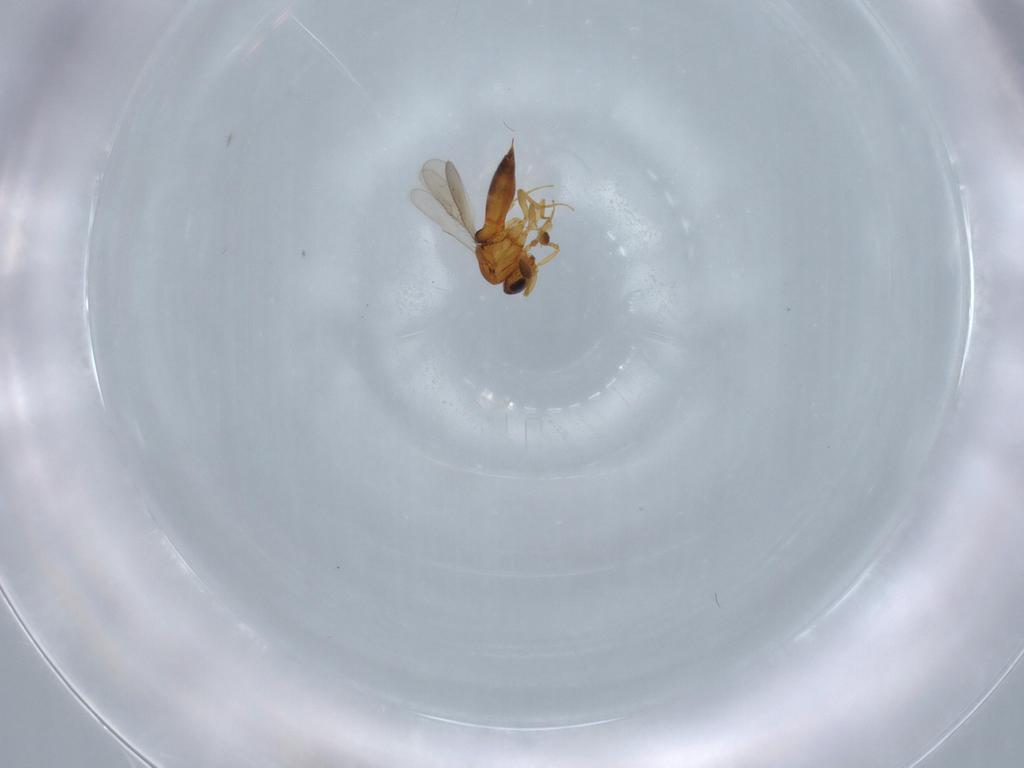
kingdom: Animalia
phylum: Arthropoda
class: Insecta
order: Hymenoptera
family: Scelionidae
